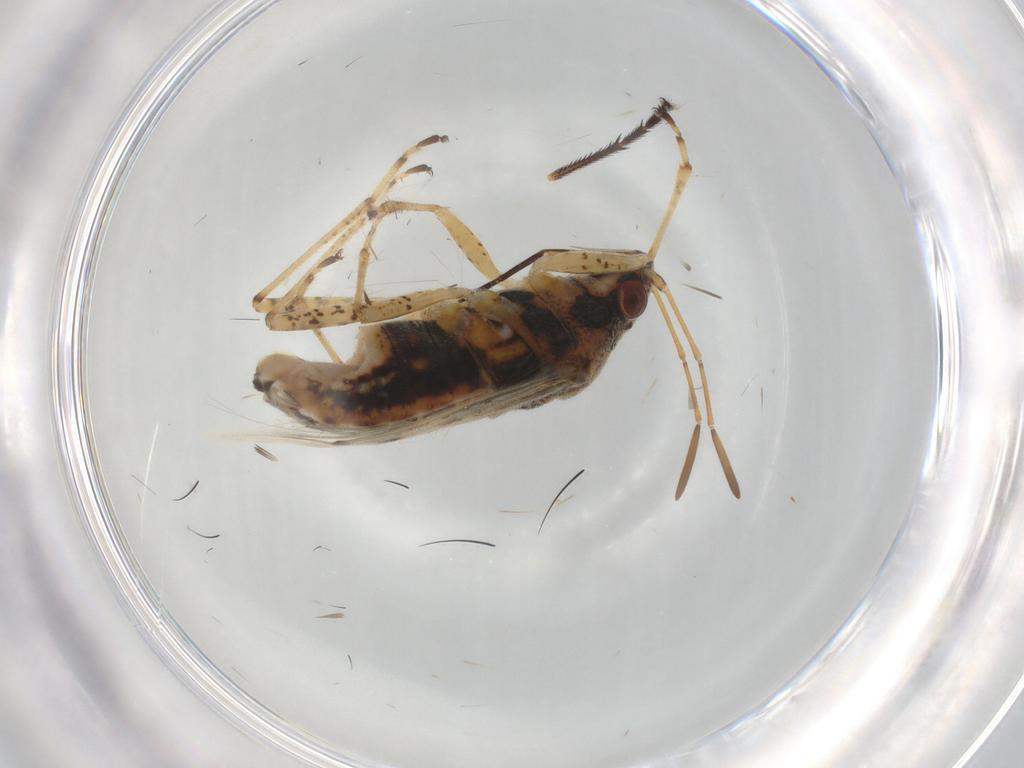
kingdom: Animalia
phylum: Arthropoda
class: Insecta
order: Hemiptera
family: Lygaeidae
